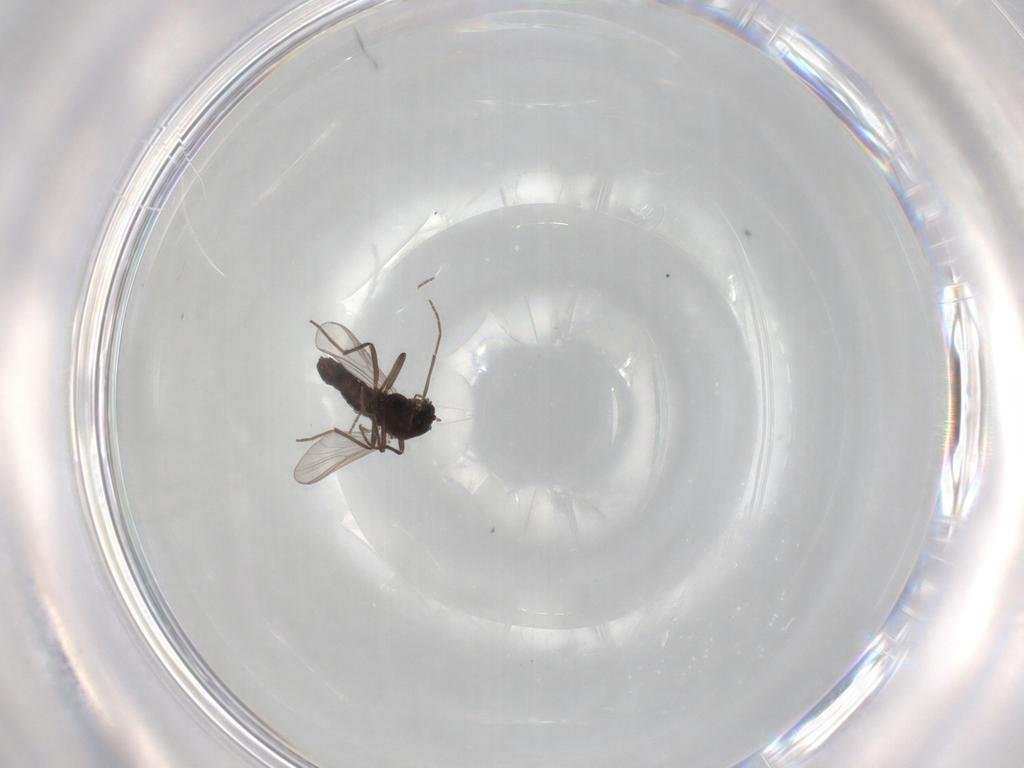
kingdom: Animalia
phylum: Arthropoda
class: Insecta
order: Diptera
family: Chironomidae
